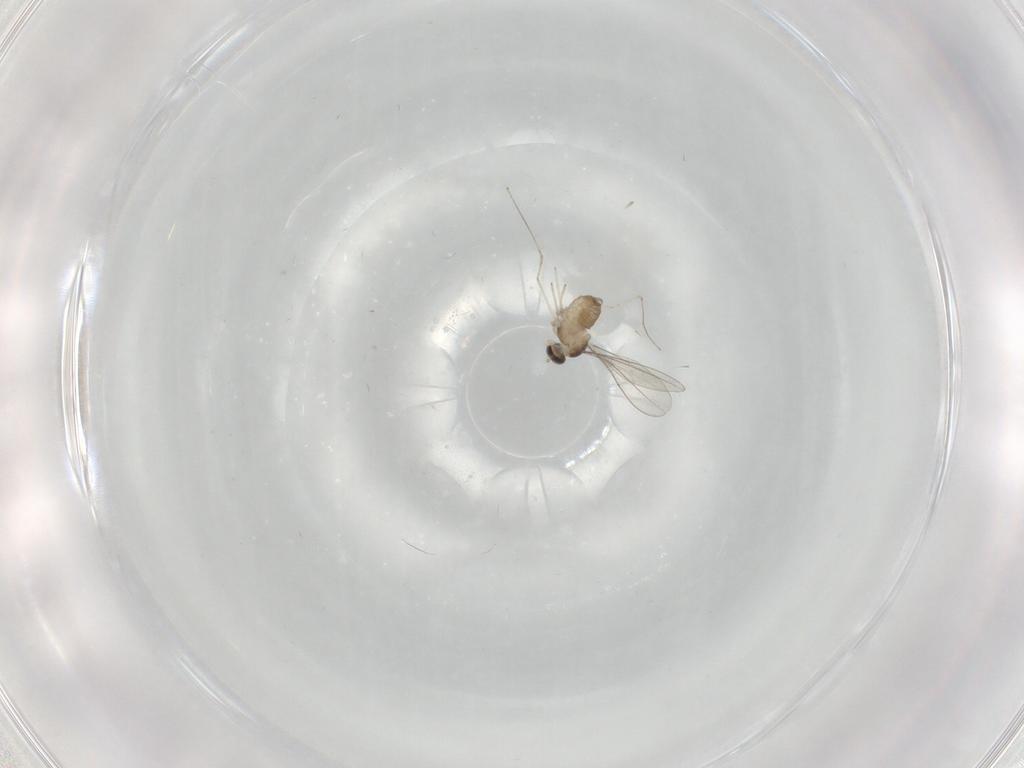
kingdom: Animalia
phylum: Arthropoda
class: Insecta
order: Diptera
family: Cecidomyiidae
